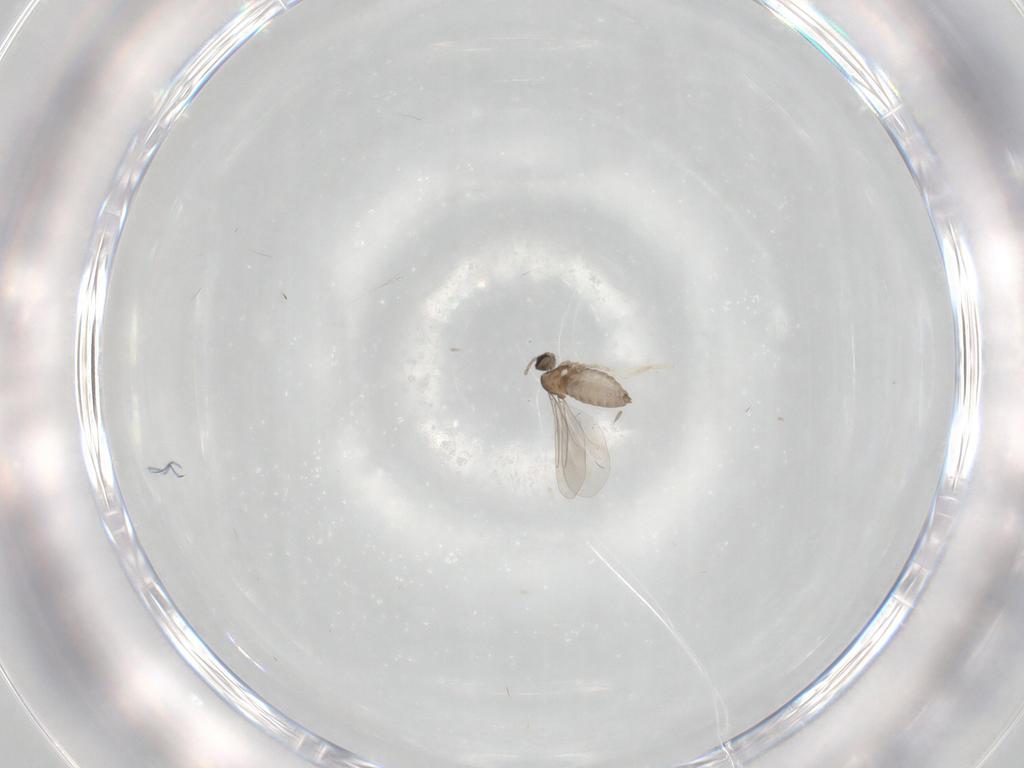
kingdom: Animalia
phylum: Arthropoda
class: Insecta
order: Diptera
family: Cecidomyiidae
